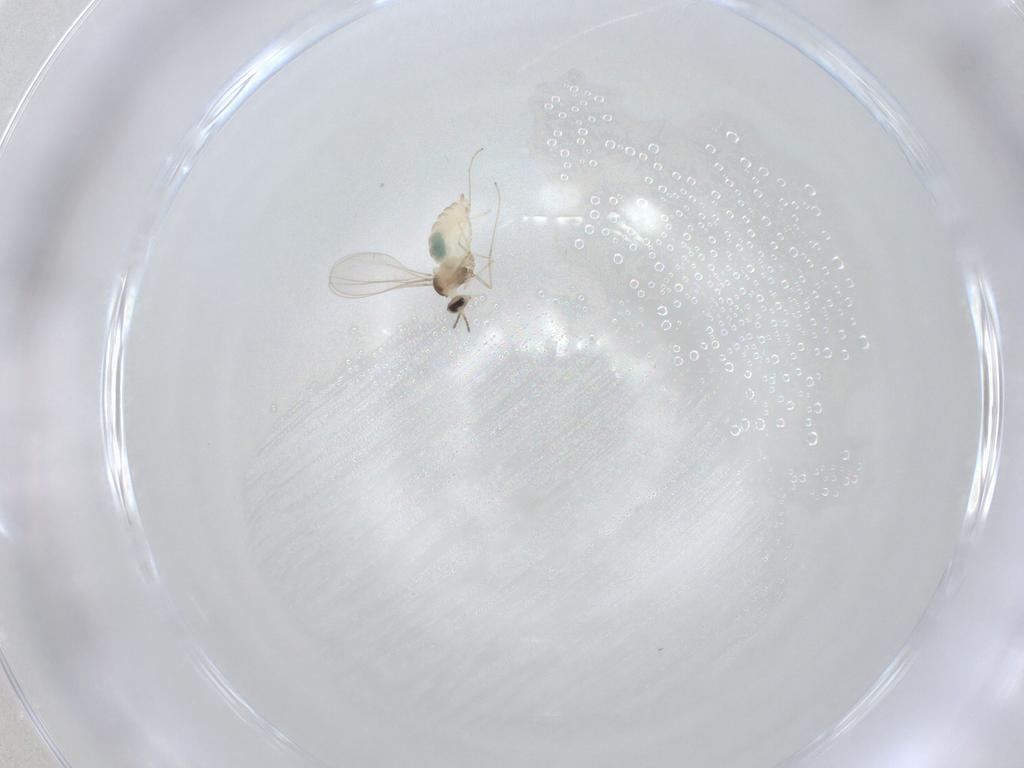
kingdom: Animalia
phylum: Arthropoda
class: Insecta
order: Diptera
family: Cecidomyiidae
